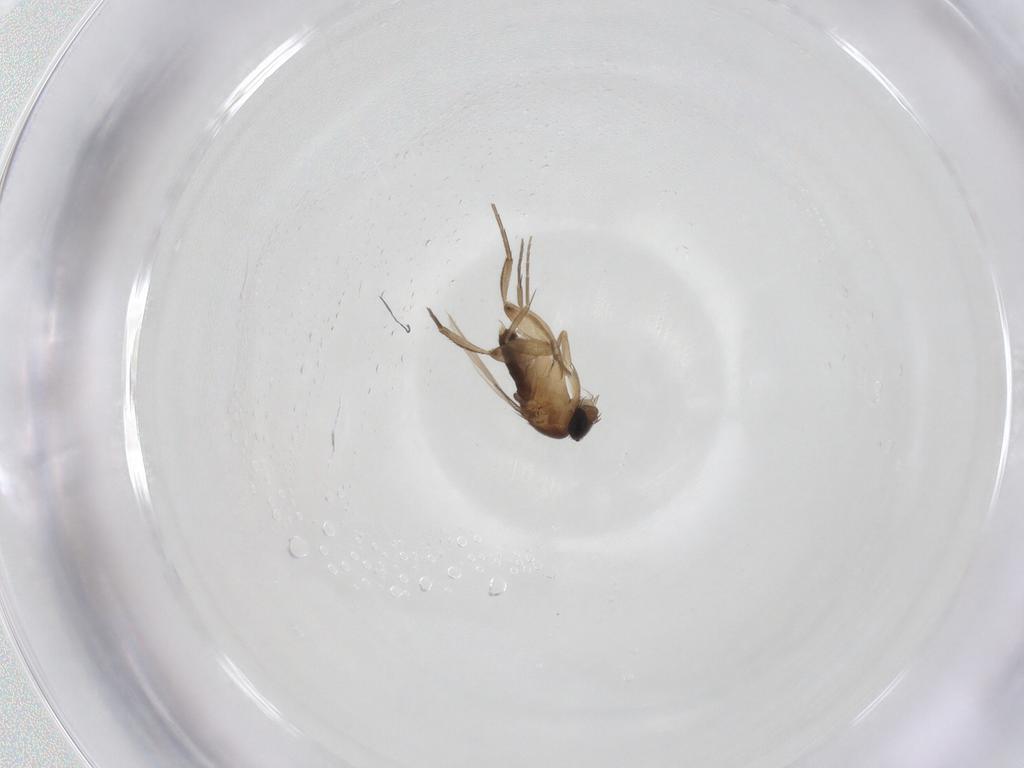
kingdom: Animalia
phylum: Arthropoda
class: Insecta
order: Diptera
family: Phoridae
